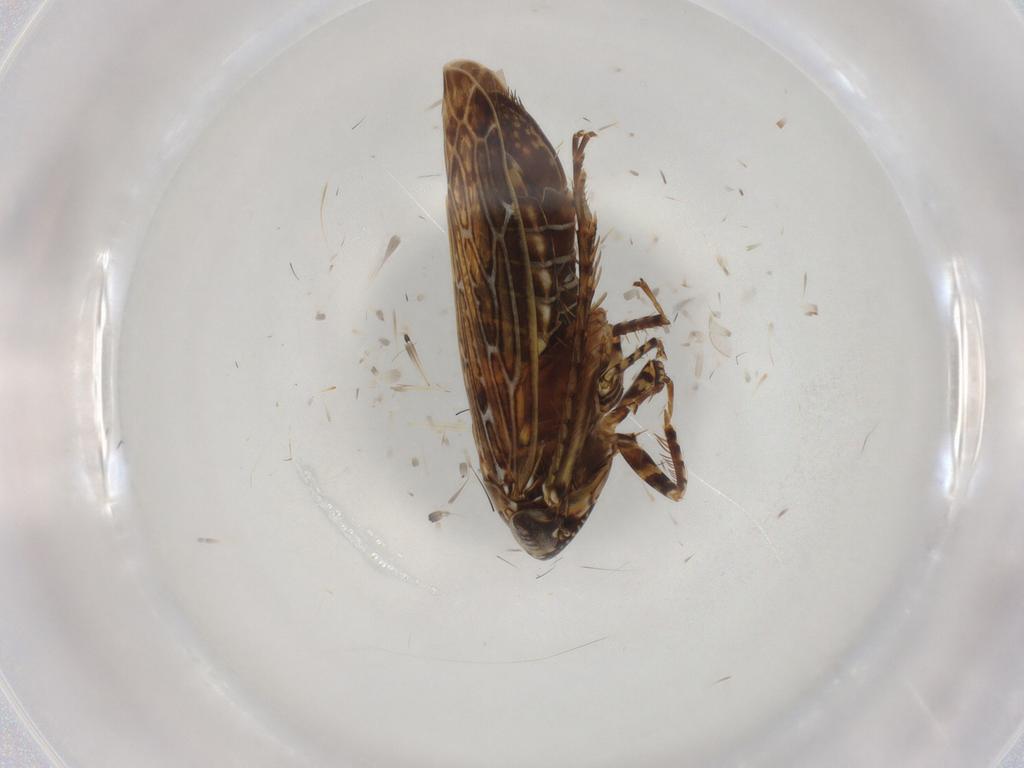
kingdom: Animalia
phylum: Arthropoda
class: Insecta
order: Hemiptera
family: Cicadellidae
